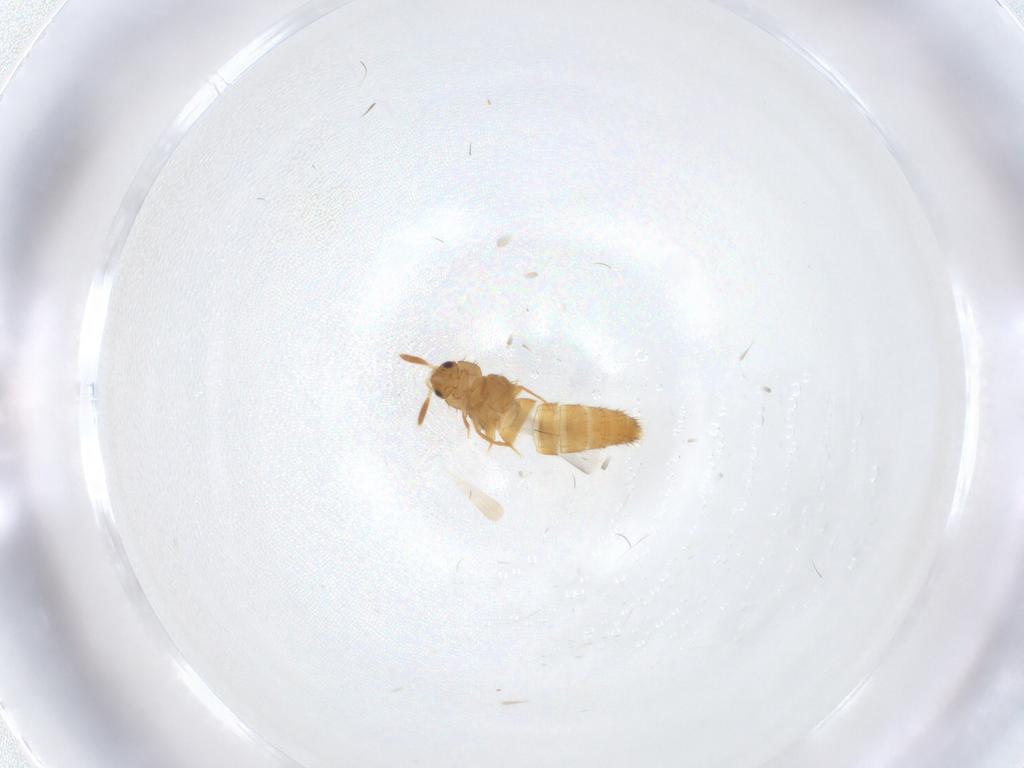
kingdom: Animalia
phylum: Arthropoda
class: Insecta
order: Coleoptera
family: Staphylinidae
